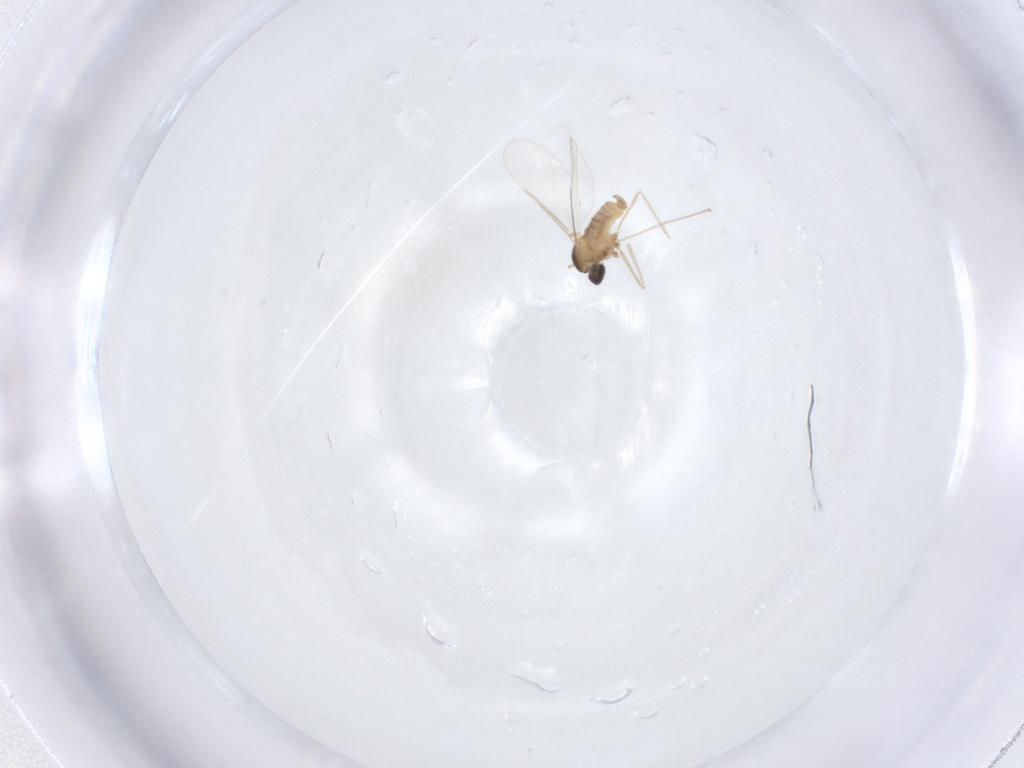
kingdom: Animalia
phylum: Arthropoda
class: Insecta
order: Diptera
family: Cecidomyiidae
